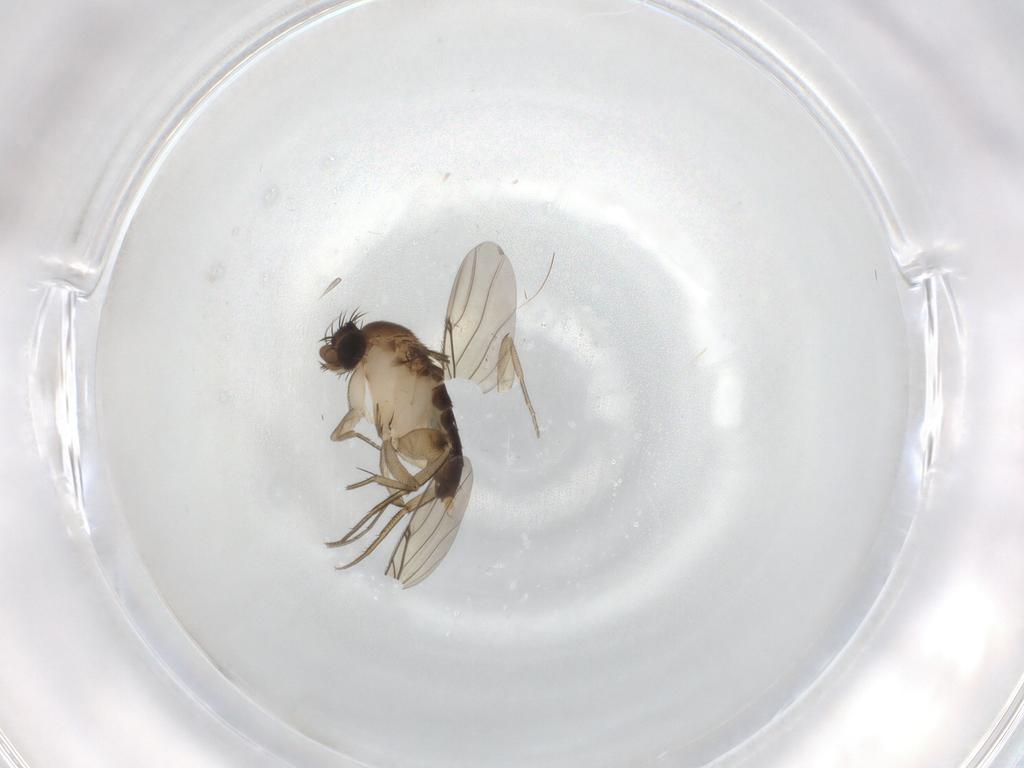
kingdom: Animalia
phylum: Arthropoda
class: Insecta
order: Diptera
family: Phoridae
